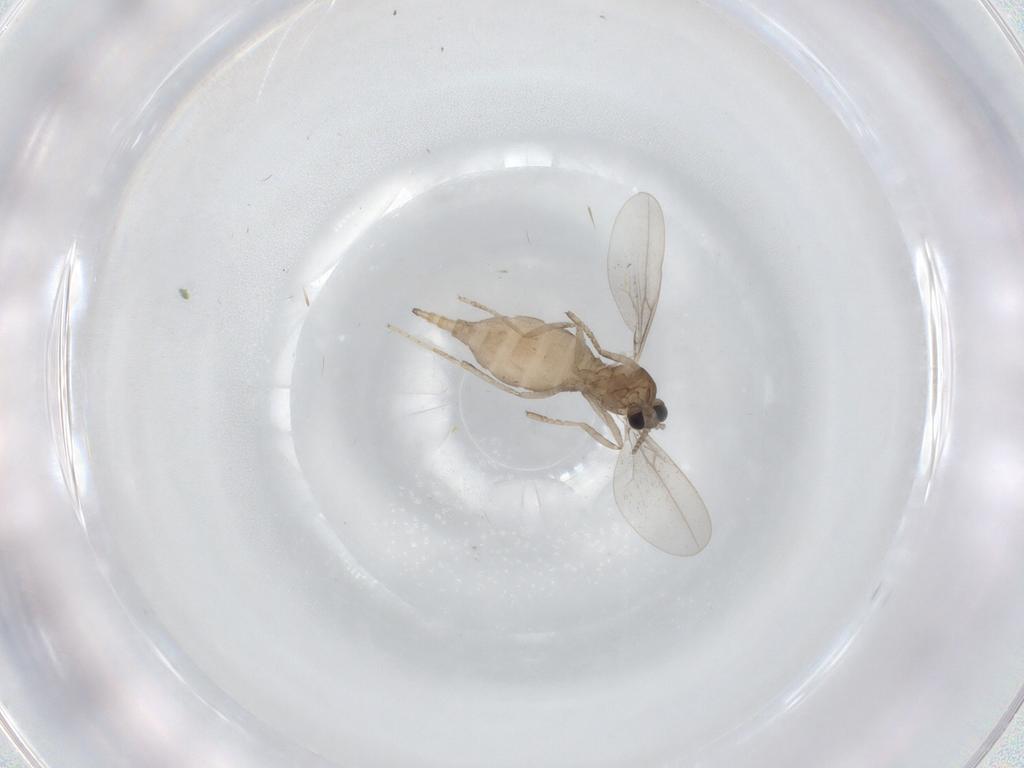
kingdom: Animalia
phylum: Arthropoda
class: Insecta
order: Diptera
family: Cecidomyiidae
